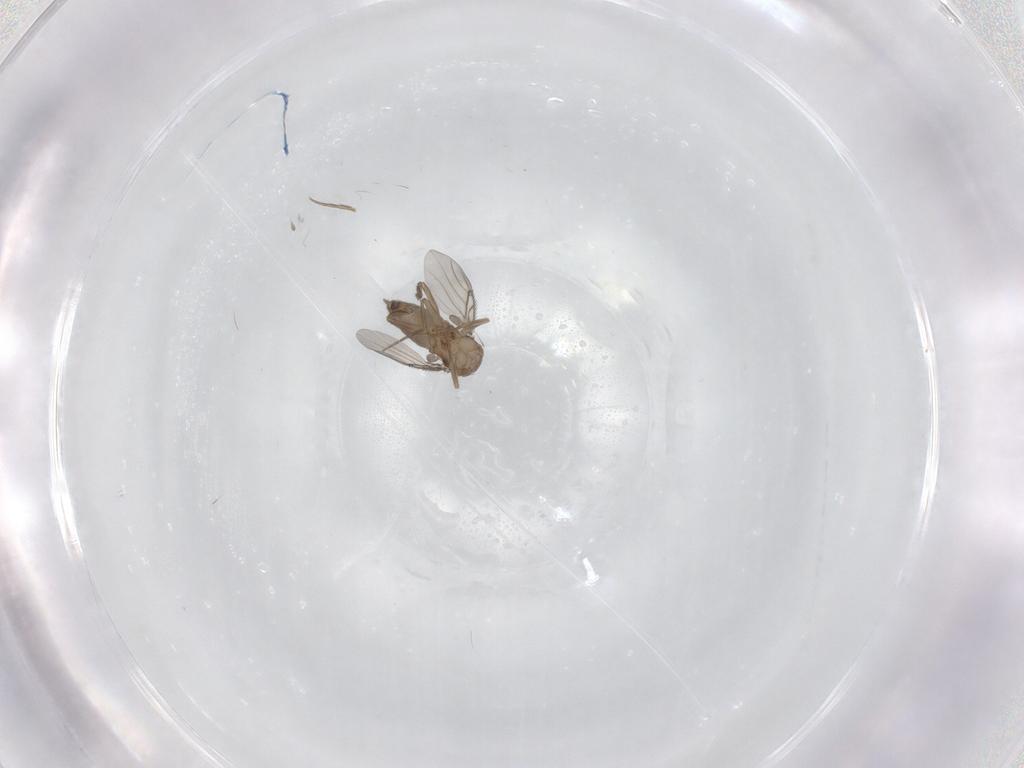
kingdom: Animalia
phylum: Arthropoda
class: Insecta
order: Diptera
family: Phoridae
